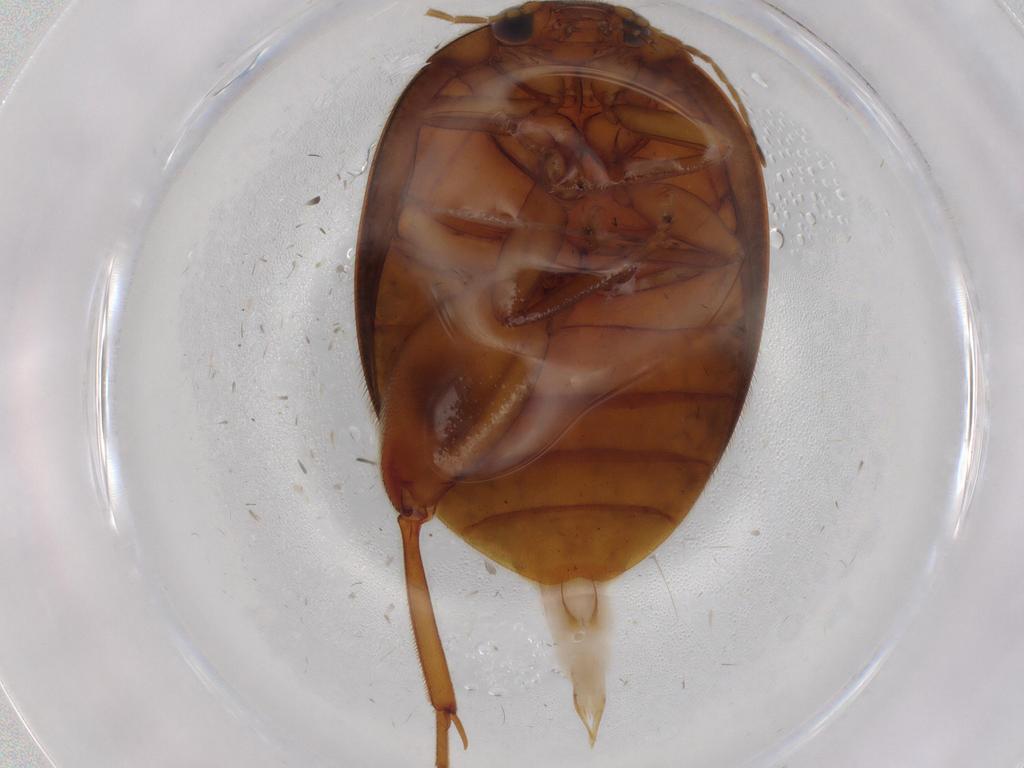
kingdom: Animalia
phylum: Arthropoda
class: Insecta
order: Coleoptera
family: Scirtidae
